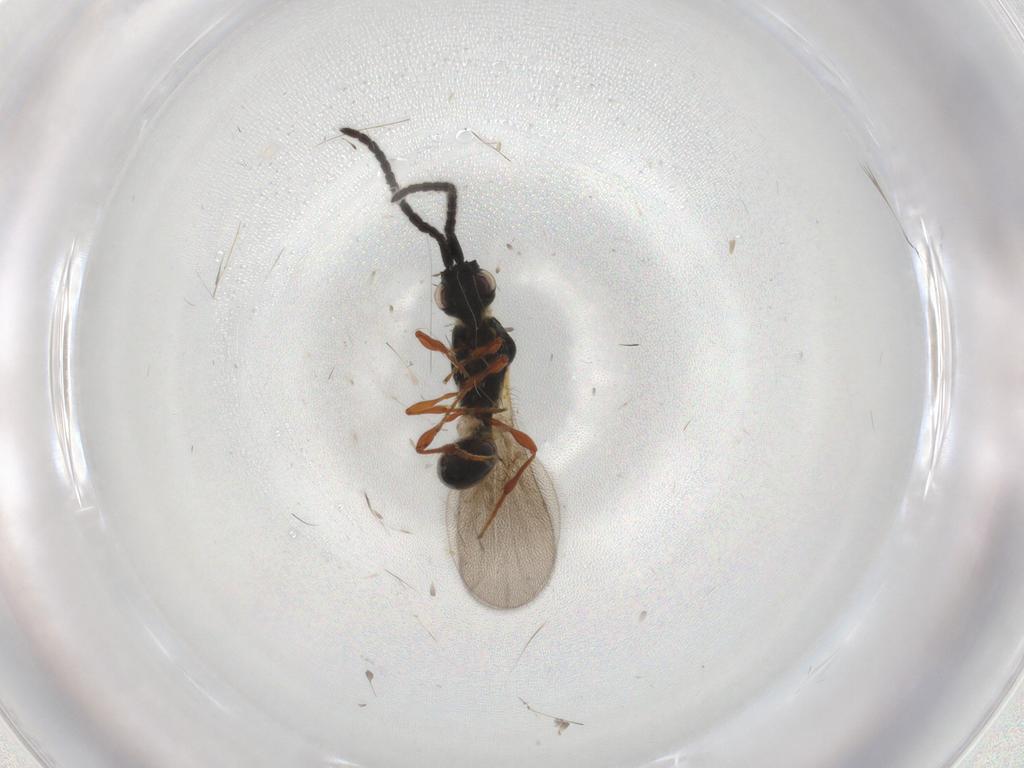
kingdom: Animalia
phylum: Arthropoda
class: Insecta
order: Hymenoptera
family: Diapriidae
